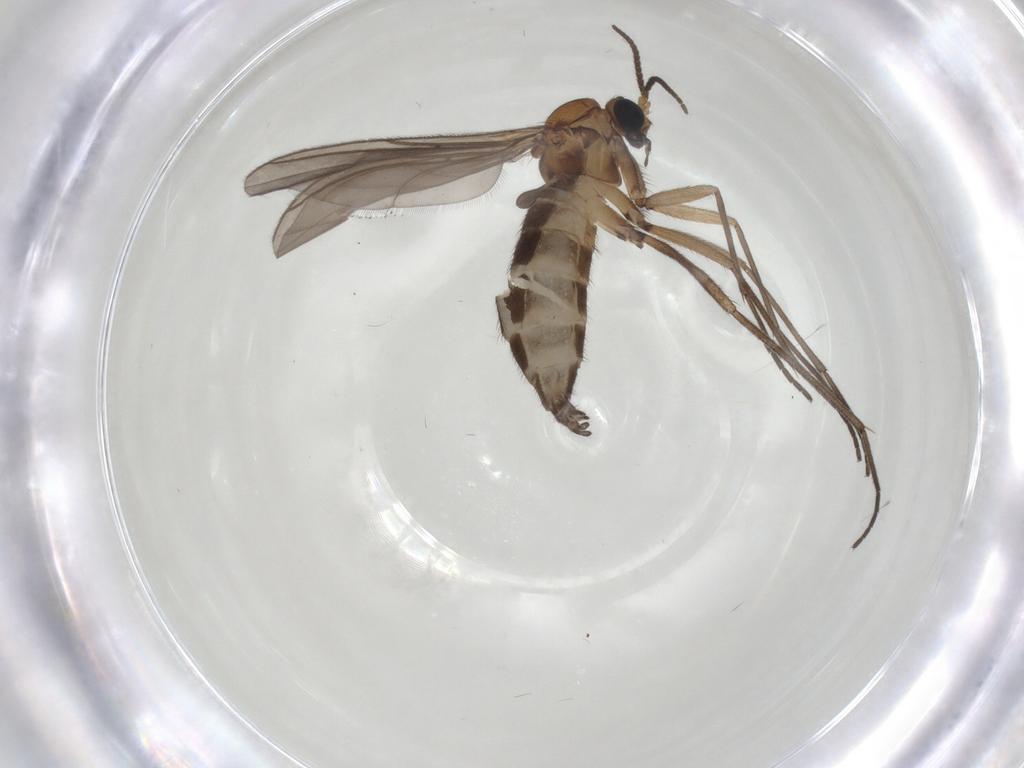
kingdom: Animalia
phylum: Arthropoda
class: Insecta
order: Diptera
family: Sciaridae
